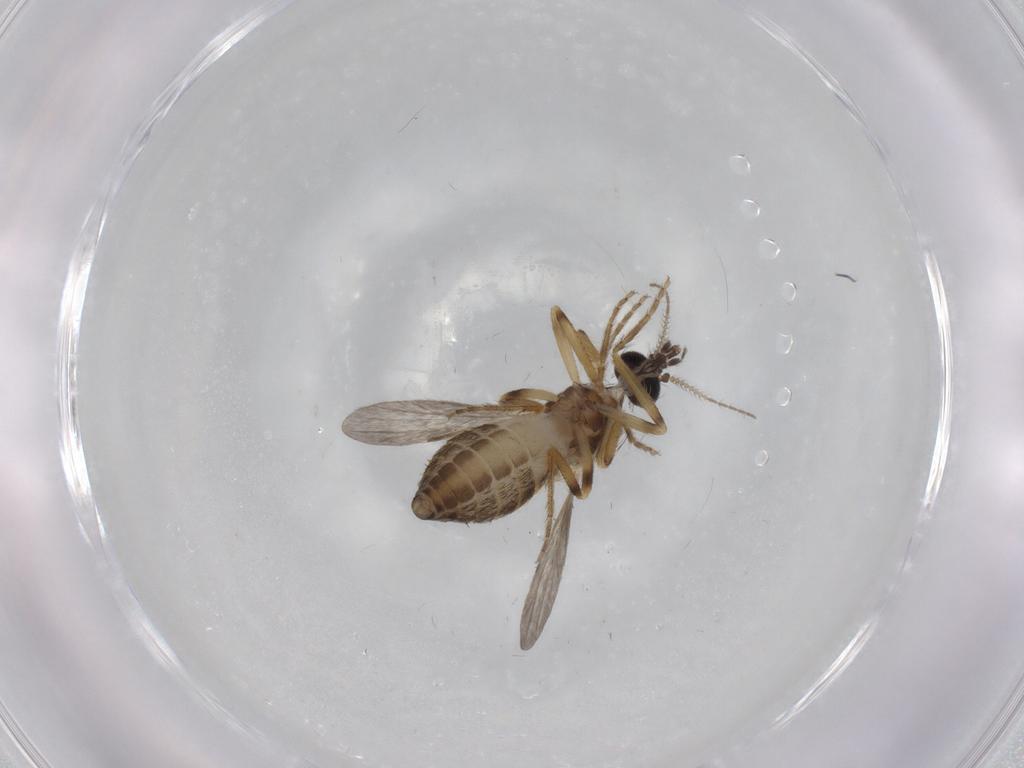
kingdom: Animalia
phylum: Arthropoda
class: Insecta
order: Diptera
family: Ceratopogonidae
